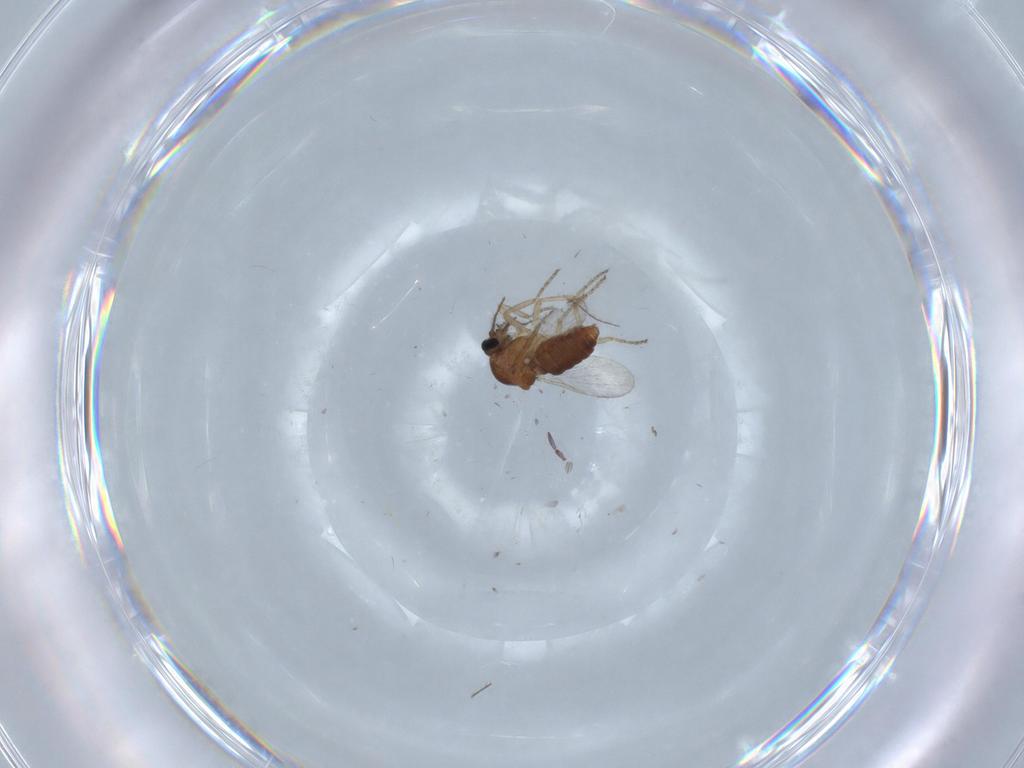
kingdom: Animalia
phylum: Arthropoda
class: Insecta
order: Diptera
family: Ceratopogonidae
